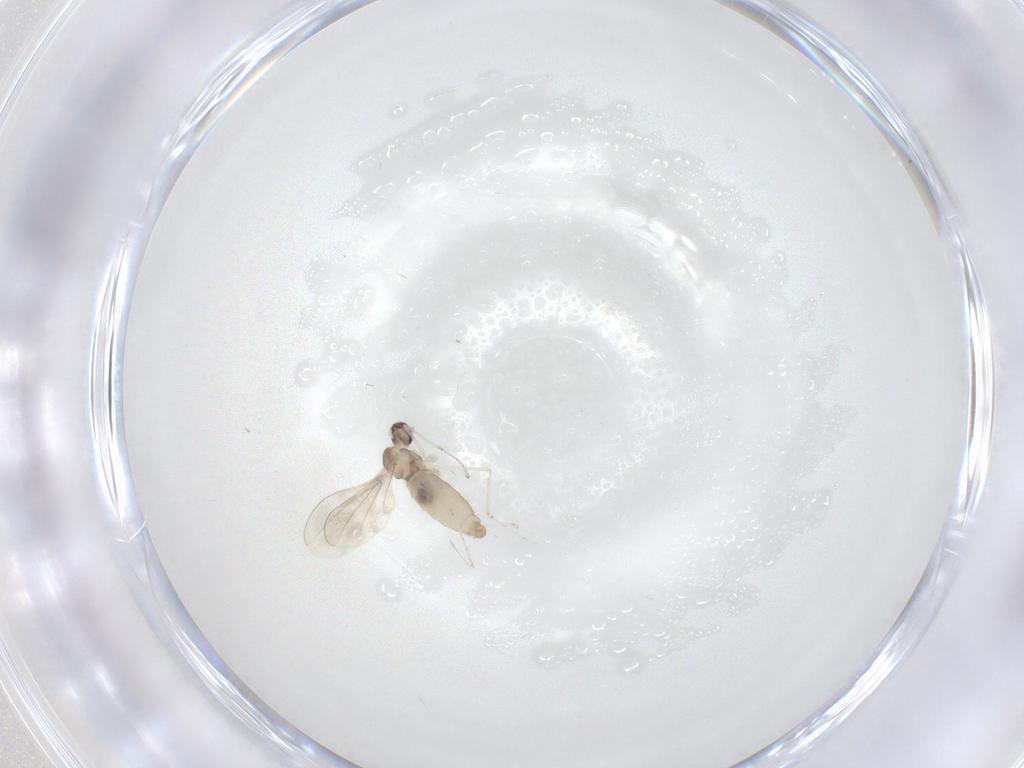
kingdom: Animalia
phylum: Arthropoda
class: Insecta
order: Diptera
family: Cecidomyiidae
